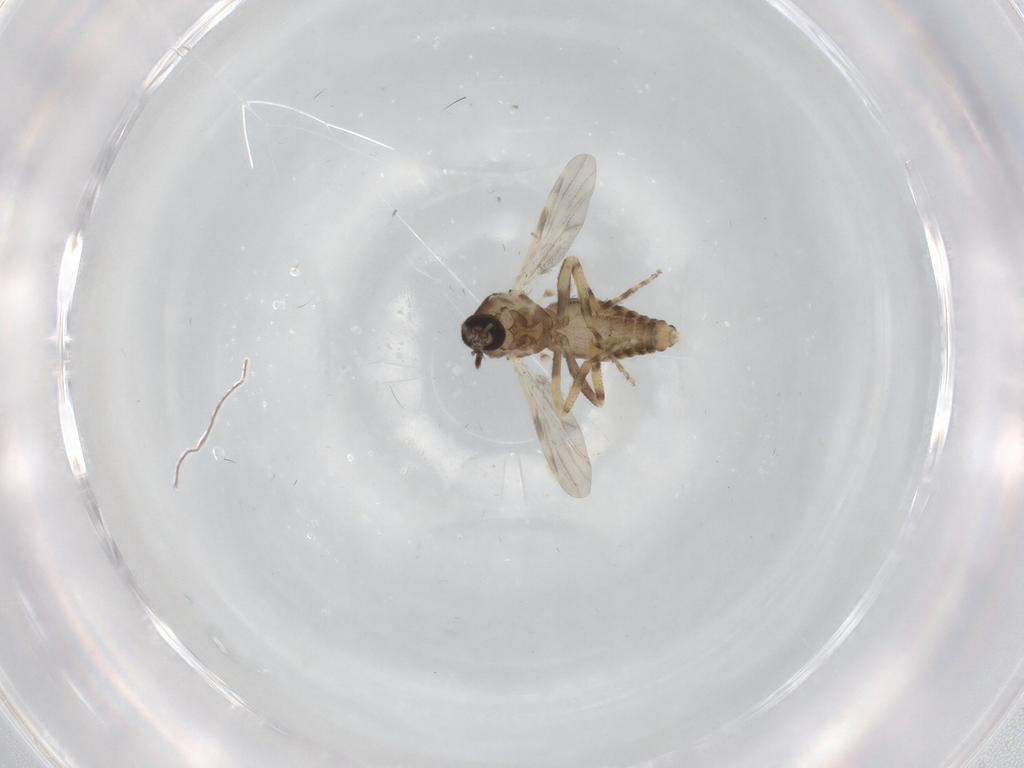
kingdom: Animalia
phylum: Arthropoda
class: Insecta
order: Diptera
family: Ceratopogonidae
